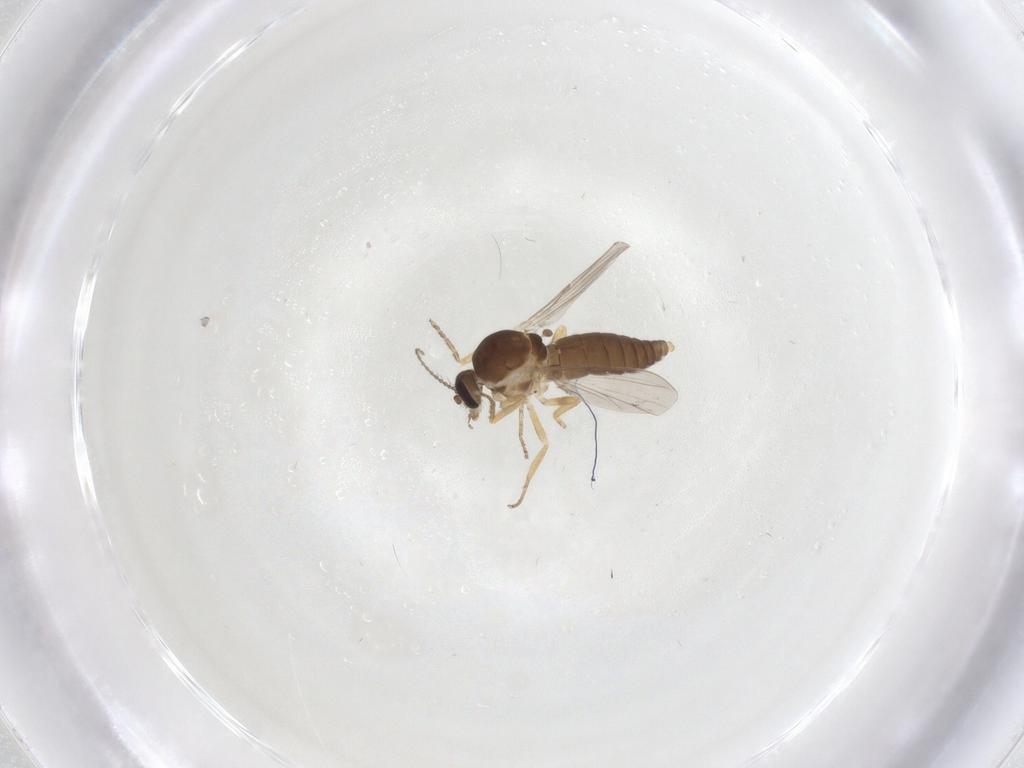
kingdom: Animalia
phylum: Arthropoda
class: Insecta
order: Diptera
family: Ceratopogonidae
